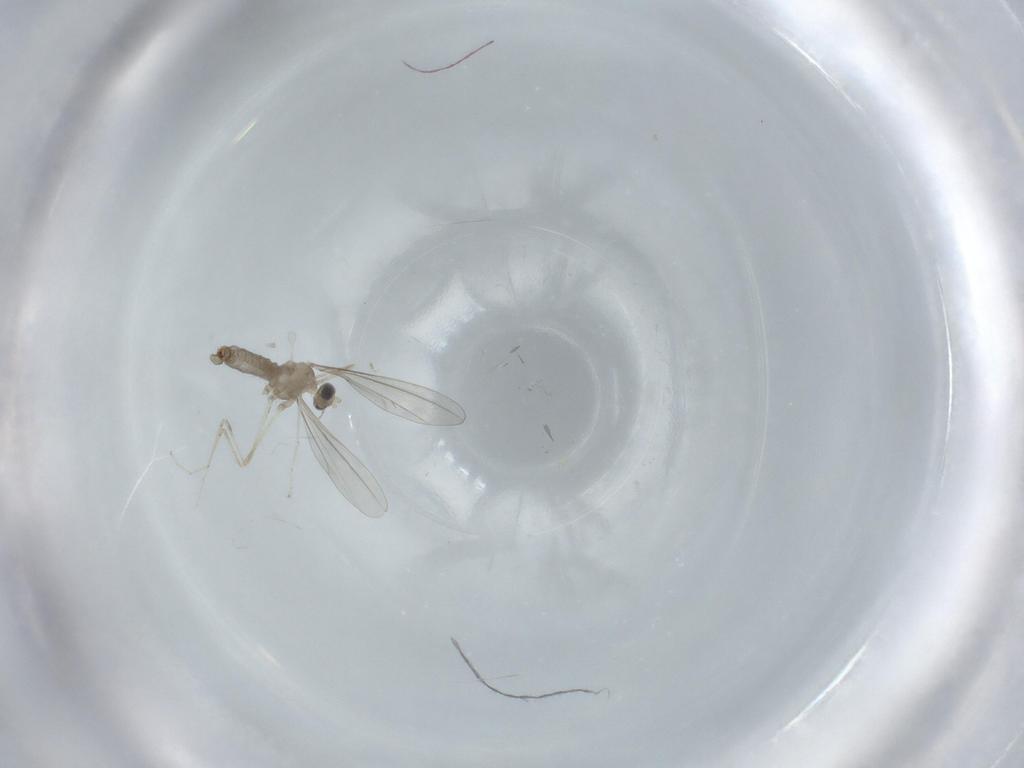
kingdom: Animalia
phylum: Arthropoda
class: Insecta
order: Diptera
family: Cecidomyiidae
